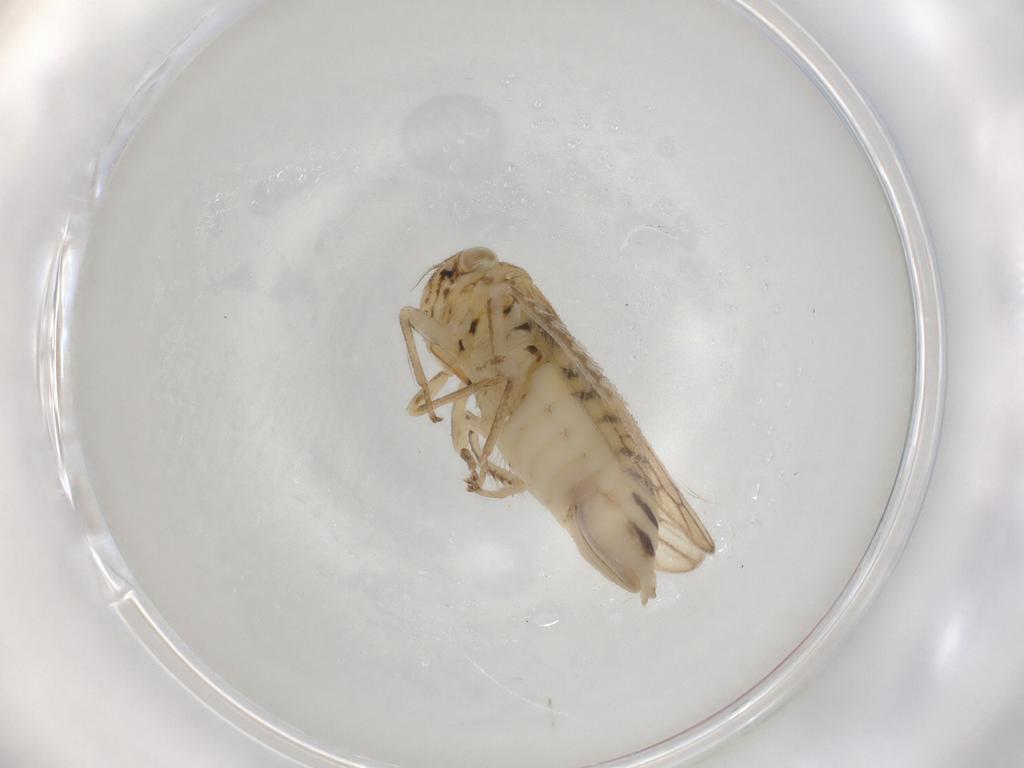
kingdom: Animalia
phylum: Arthropoda
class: Insecta
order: Hemiptera
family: Cicadellidae
